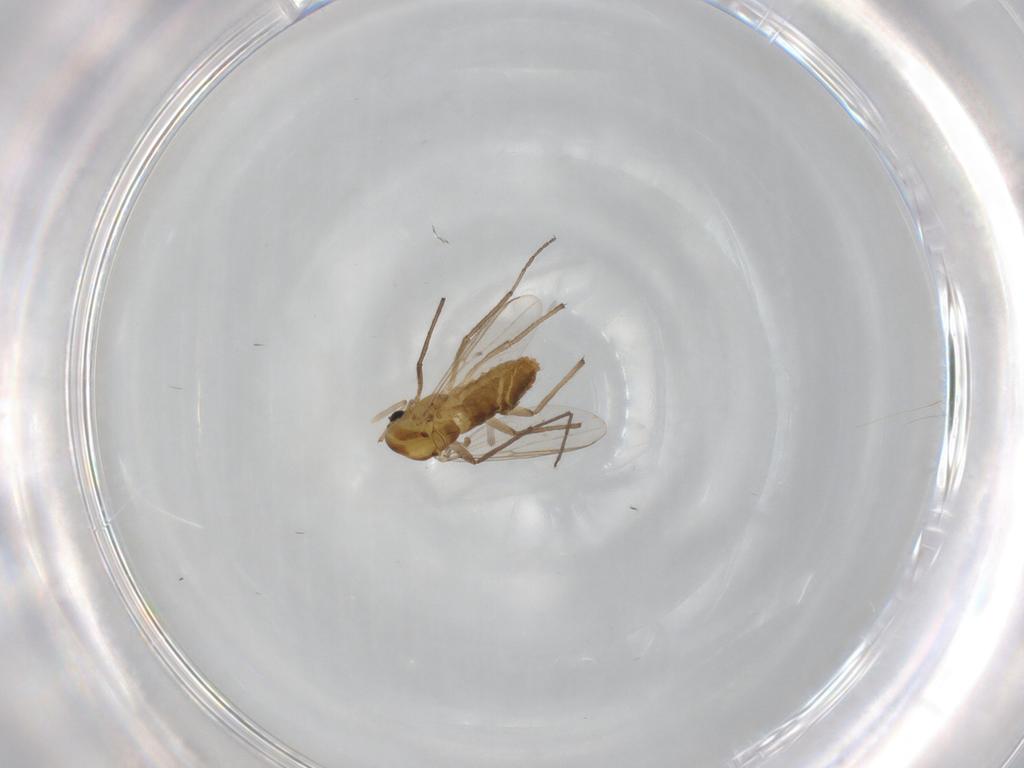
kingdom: Animalia
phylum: Arthropoda
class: Insecta
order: Diptera
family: Chironomidae
